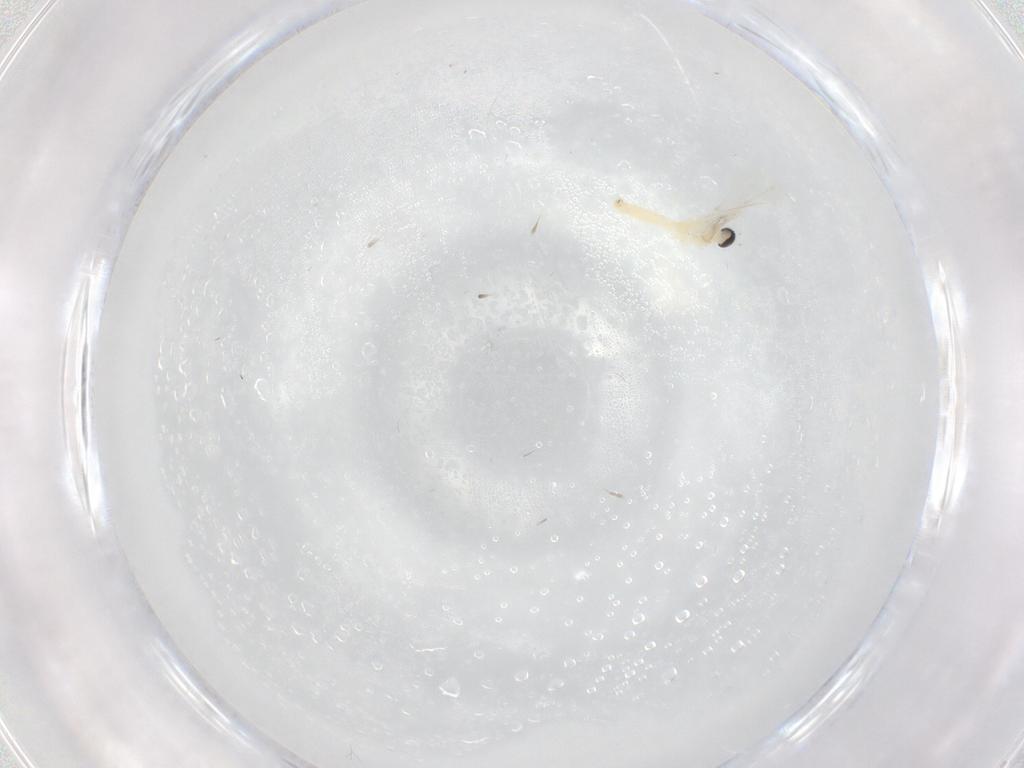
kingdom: Animalia
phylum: Arthropoda
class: Insecta
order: Diptera
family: Cecidomyiidae
